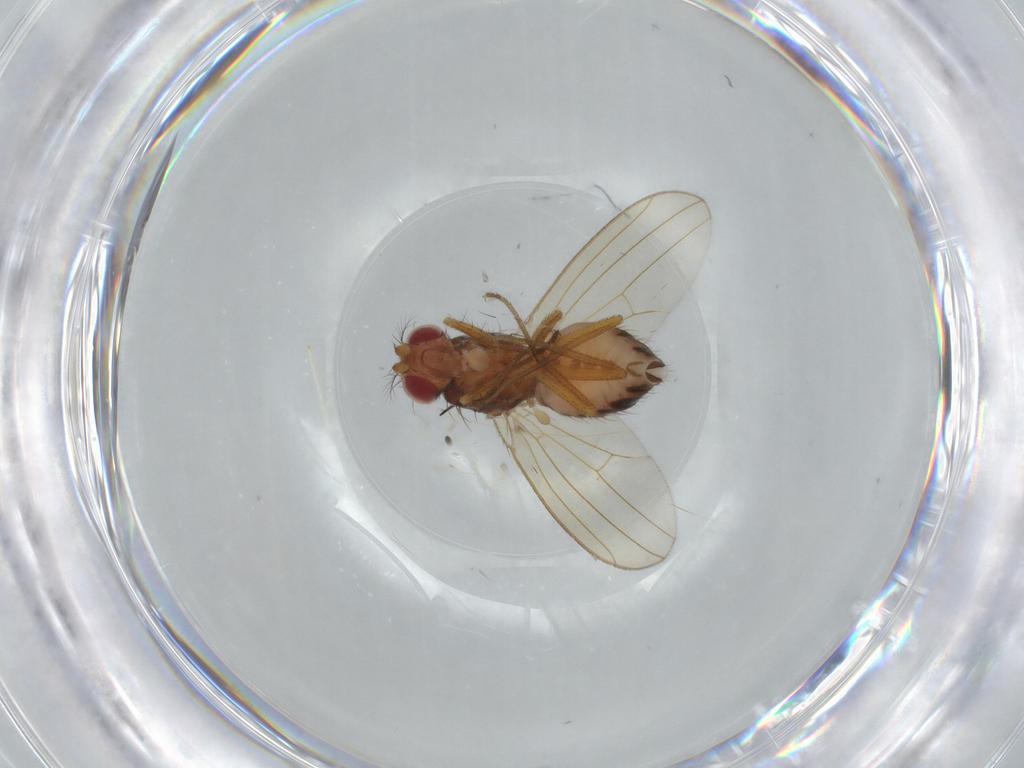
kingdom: Animalia
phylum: Arthropoda
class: Insecta
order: Diptera
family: Drosophilidae
